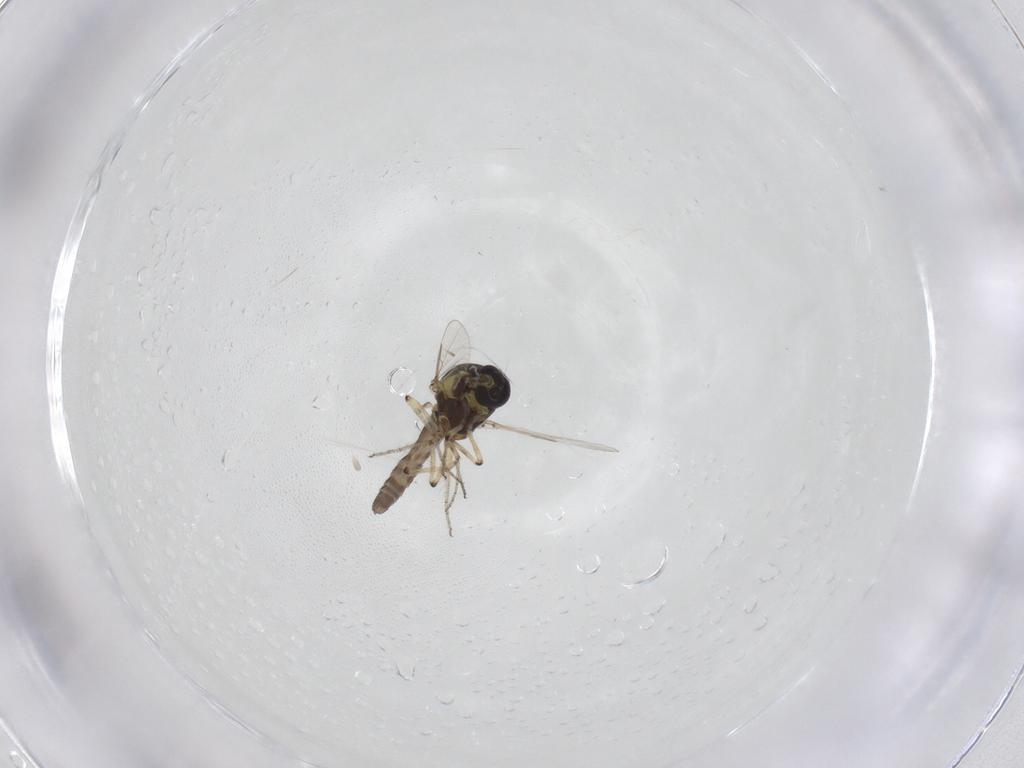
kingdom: Animalia
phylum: Arthropoda
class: Insecta
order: Diptera
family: Ceratopogonidae
